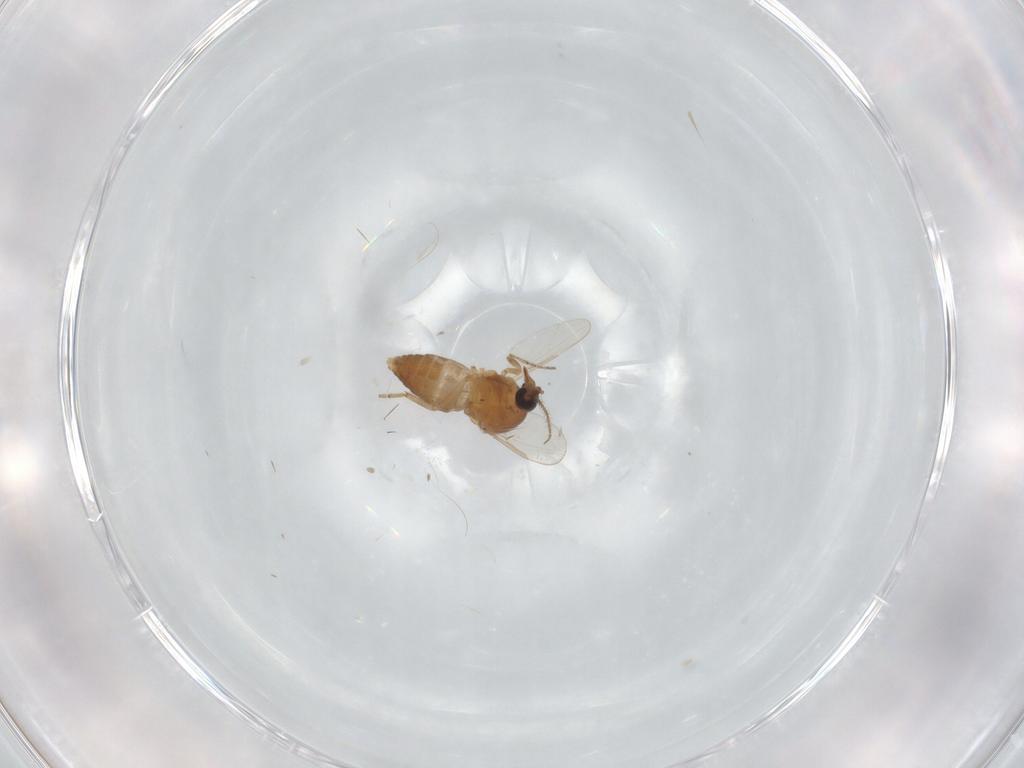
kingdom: Animalia
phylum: Arthropoda
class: Insecta
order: Diptera
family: Ceratopogonidae
